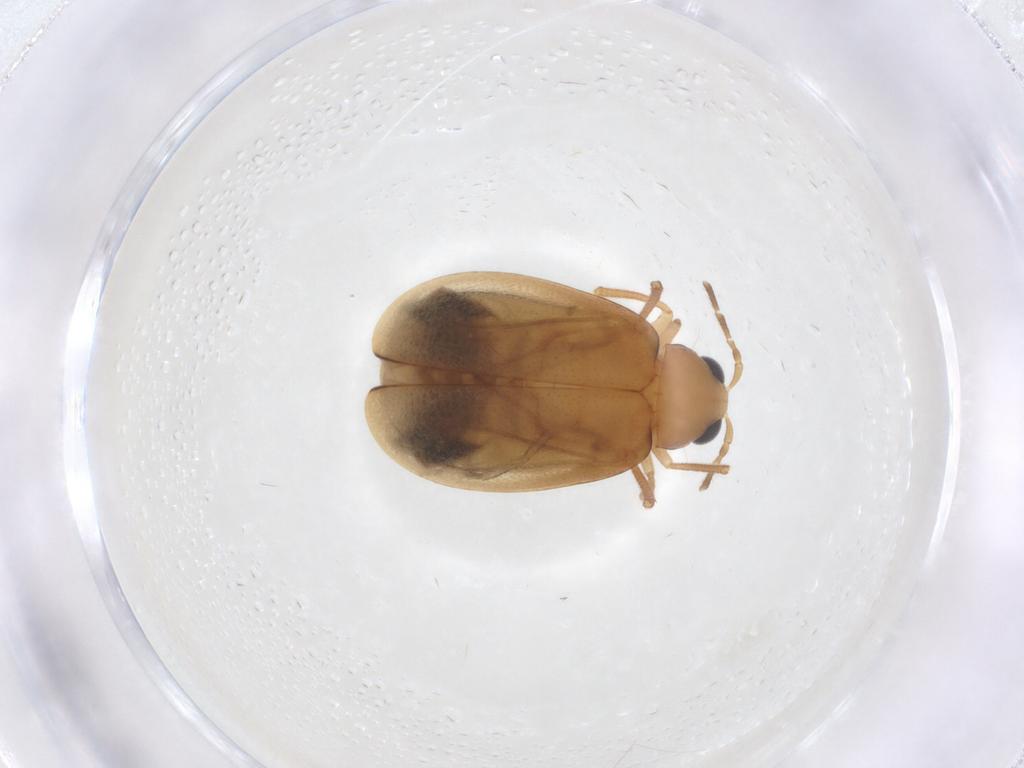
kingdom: Animalia
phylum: Arthropoda
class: Insecta
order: Coleoptera
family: Chrysomelidae
